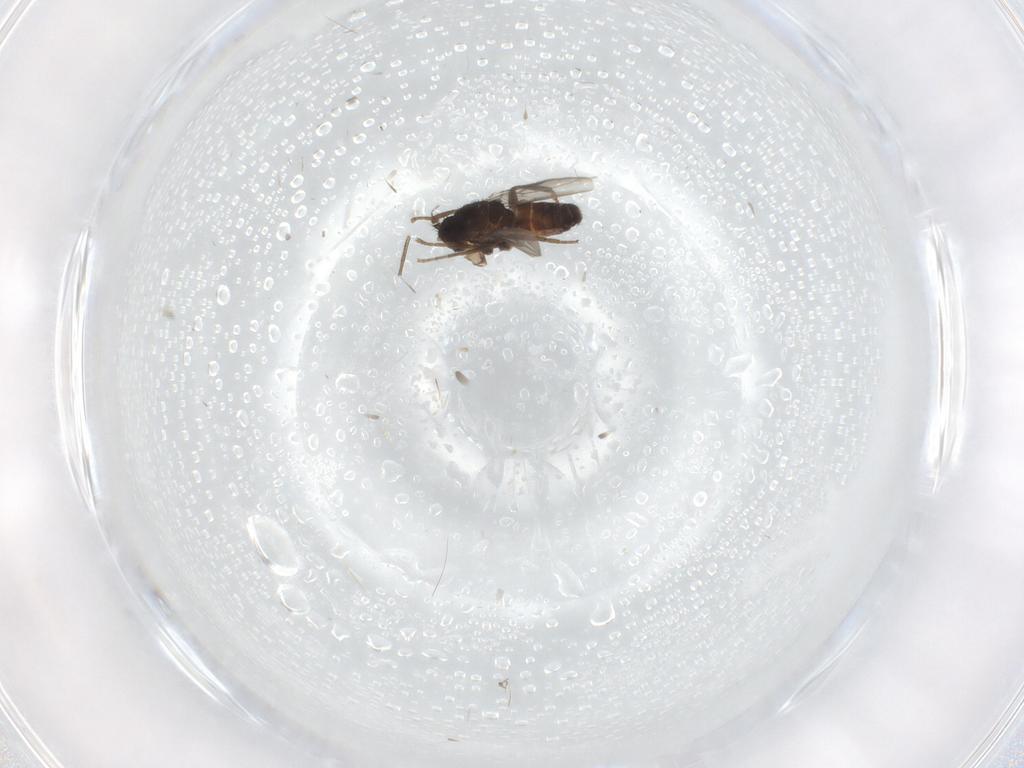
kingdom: Animalia
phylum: Arthropoda
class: Insecta
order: Diptera
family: Sphaeroceridae
